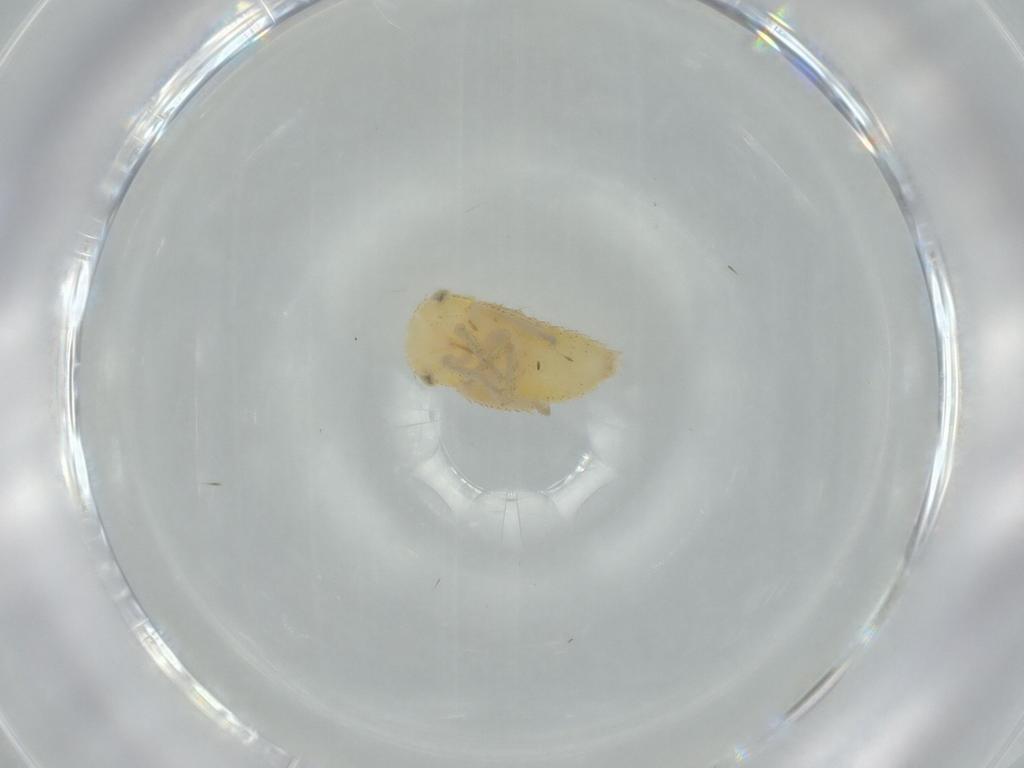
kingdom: Animalia
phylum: Arthropoda
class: Insecta
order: Hemiptera
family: Cicadellidae
